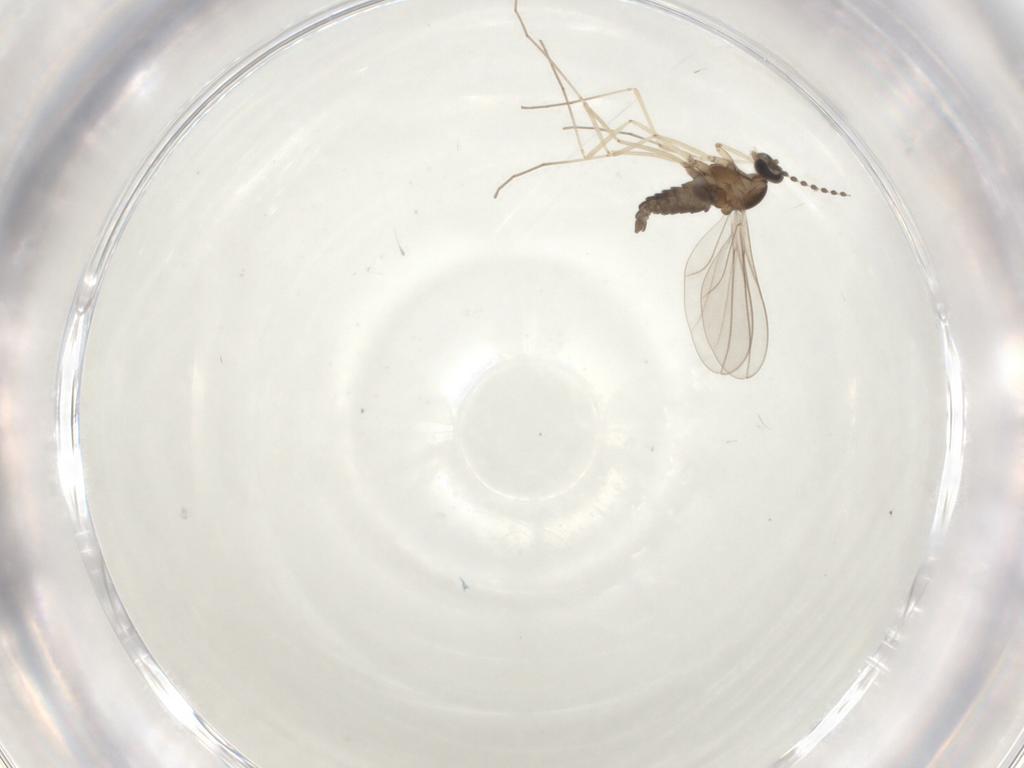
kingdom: Animalia
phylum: Arthropoda
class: Insecta
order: Diptera
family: Cecidomyiidae
